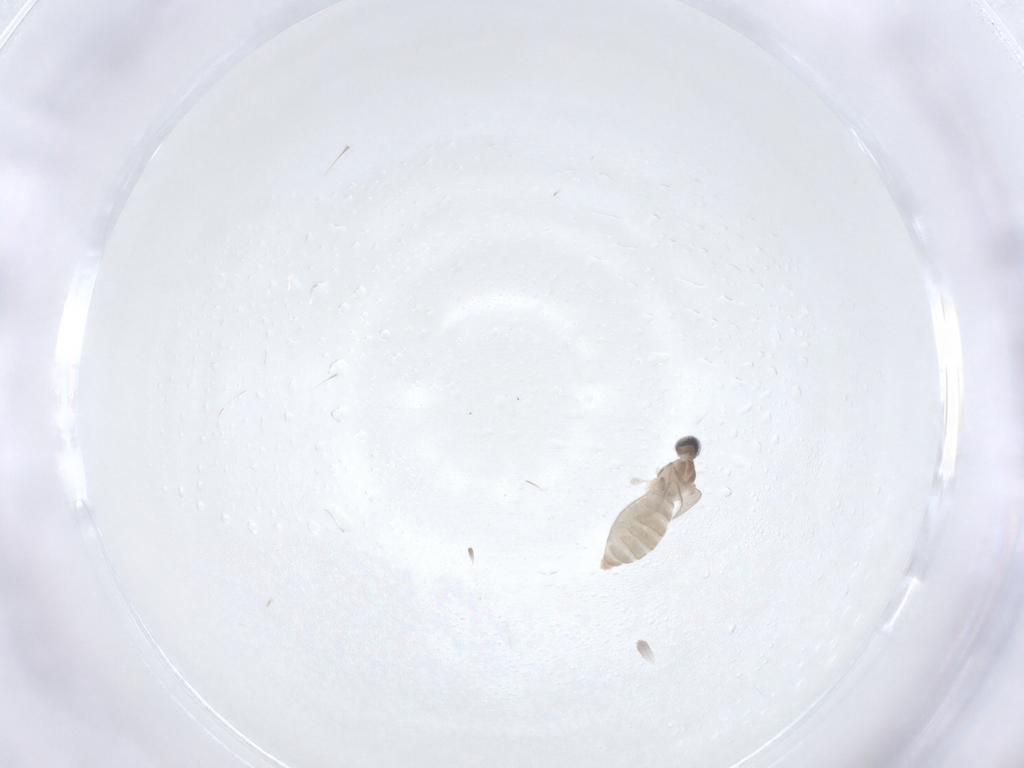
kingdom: Animalia
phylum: Arthropoda
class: Insecta
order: Diptera
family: Cecidomyiidae
